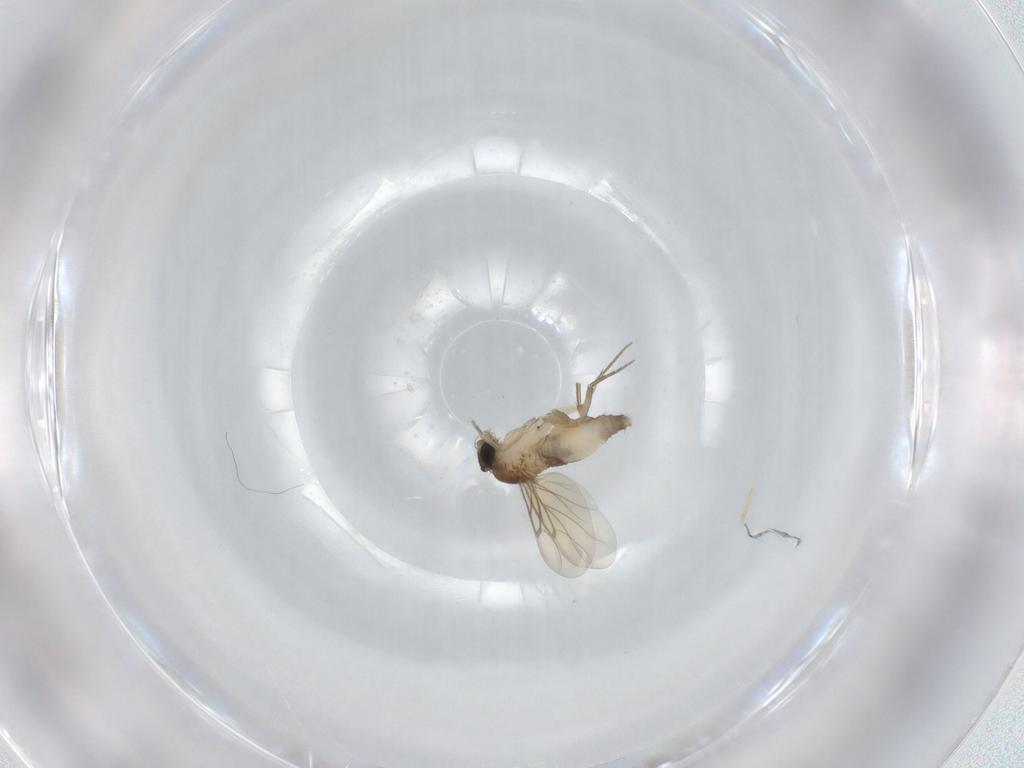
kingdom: Animalia
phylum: Arthropoda
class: Insecta
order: Diptera
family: Phoridae
